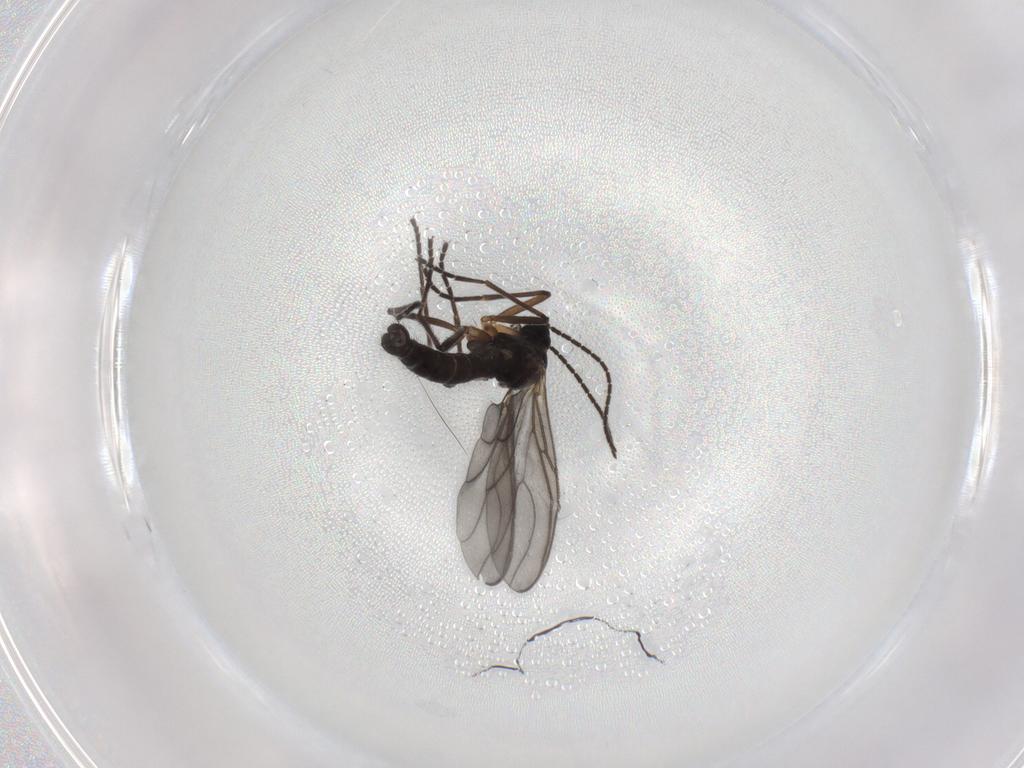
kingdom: Animalia
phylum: Arthropoda
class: Insecta
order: Diptera
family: Sciaridae
